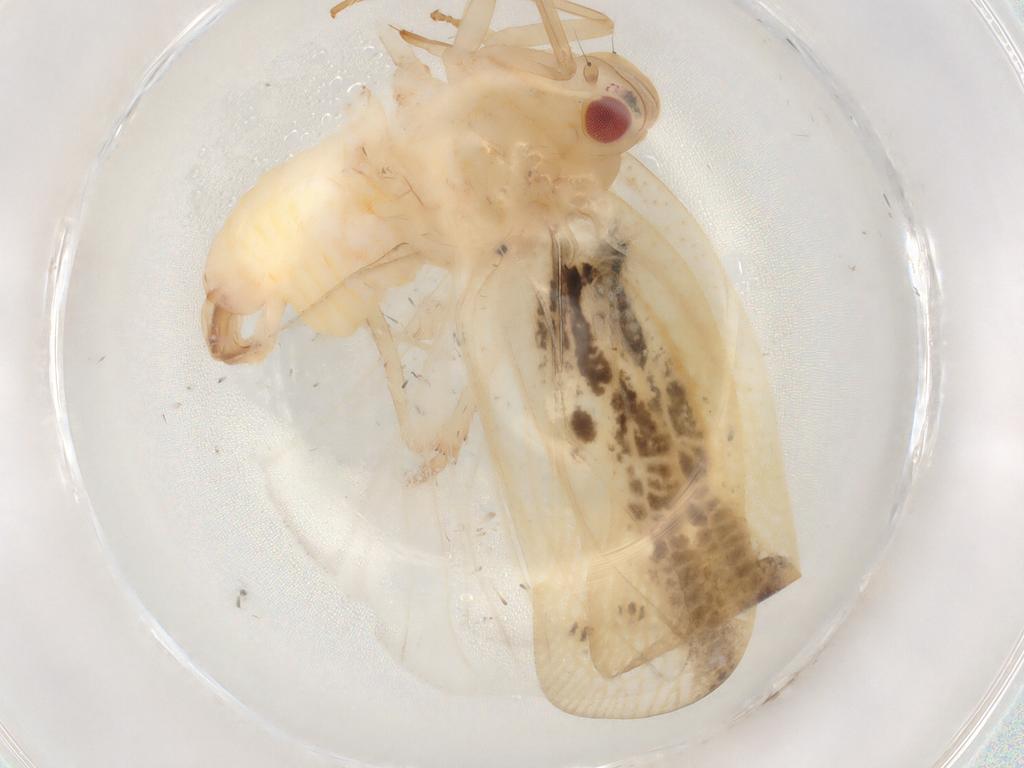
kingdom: Animalia
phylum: Arthropoda
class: Insecta
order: Hemiptera
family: Flatidae
